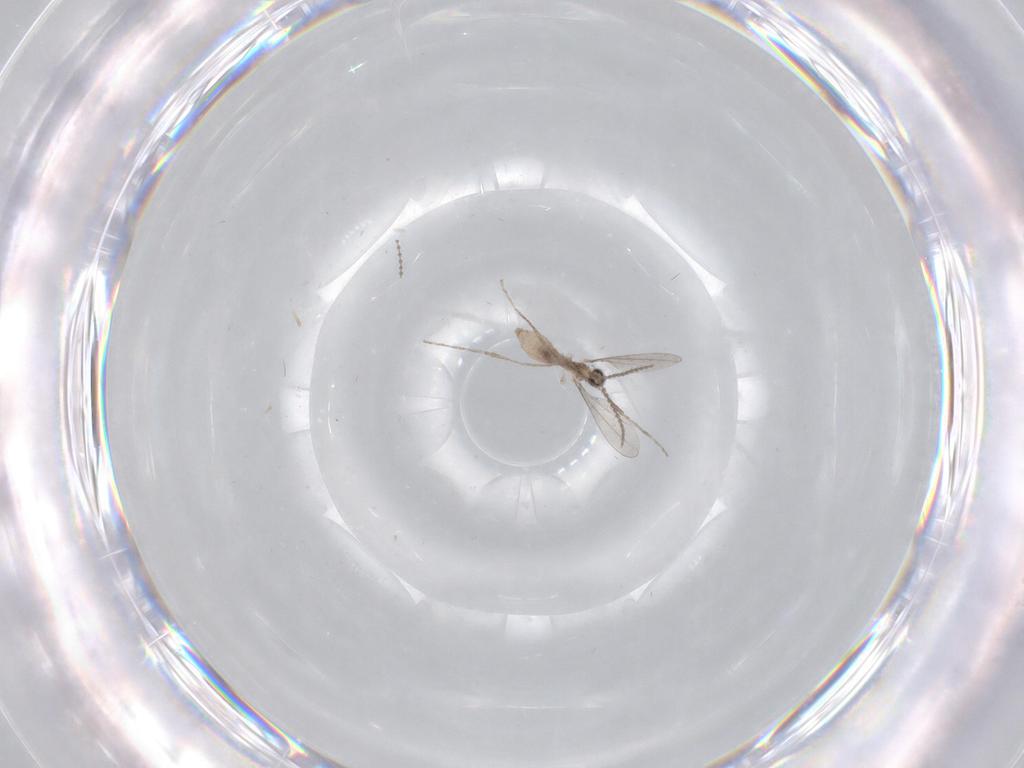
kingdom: Animalia
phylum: Arthropoda
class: Insecta
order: Diptera
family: Cecidomyiidae
